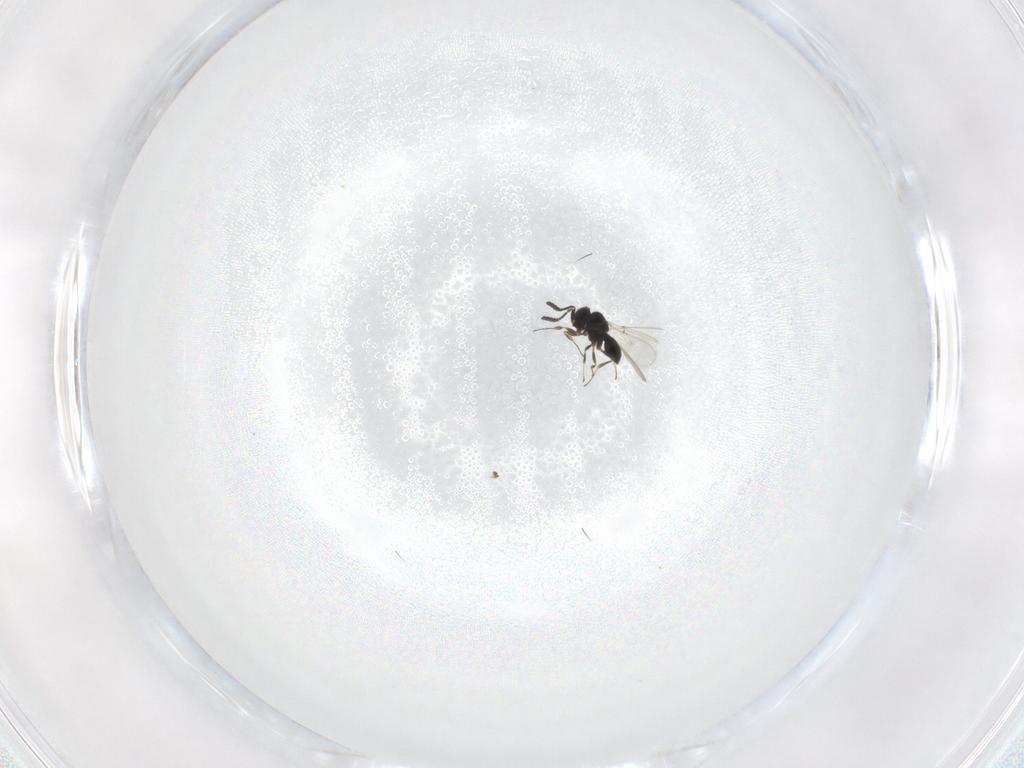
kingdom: Animalia
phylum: Arthropoda
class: Insecta
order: Hymenoptera
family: Scelionidae
